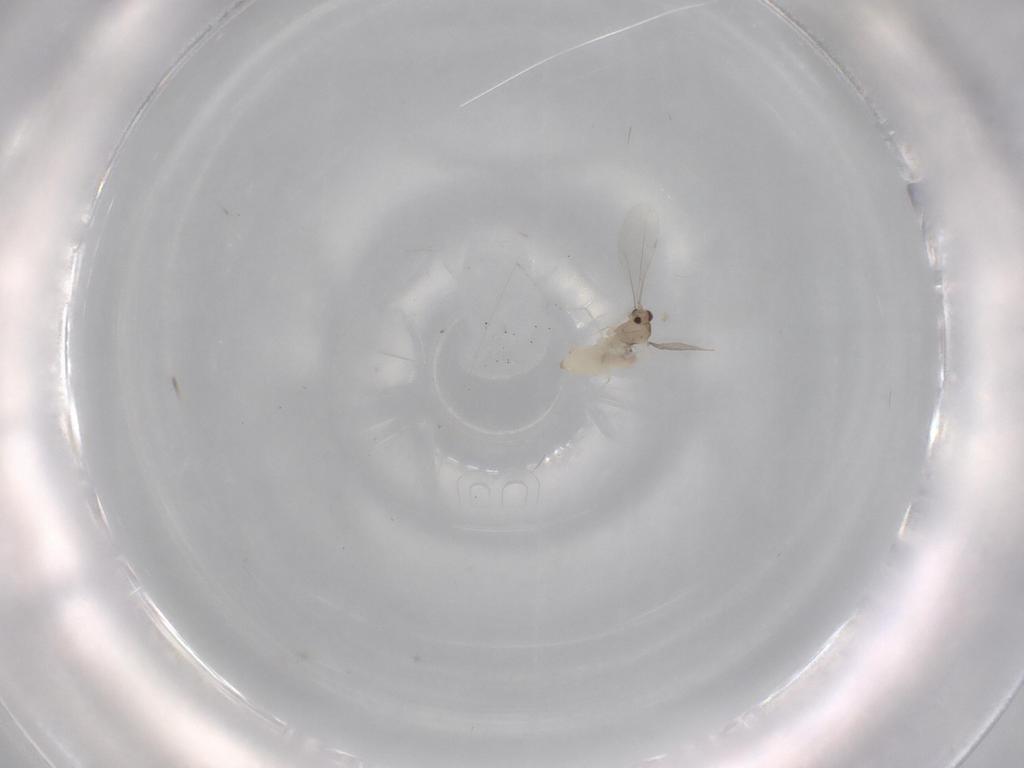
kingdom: Animalia
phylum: Arthropoda
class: Insecta
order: Diptera
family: Cecidomyiidae
